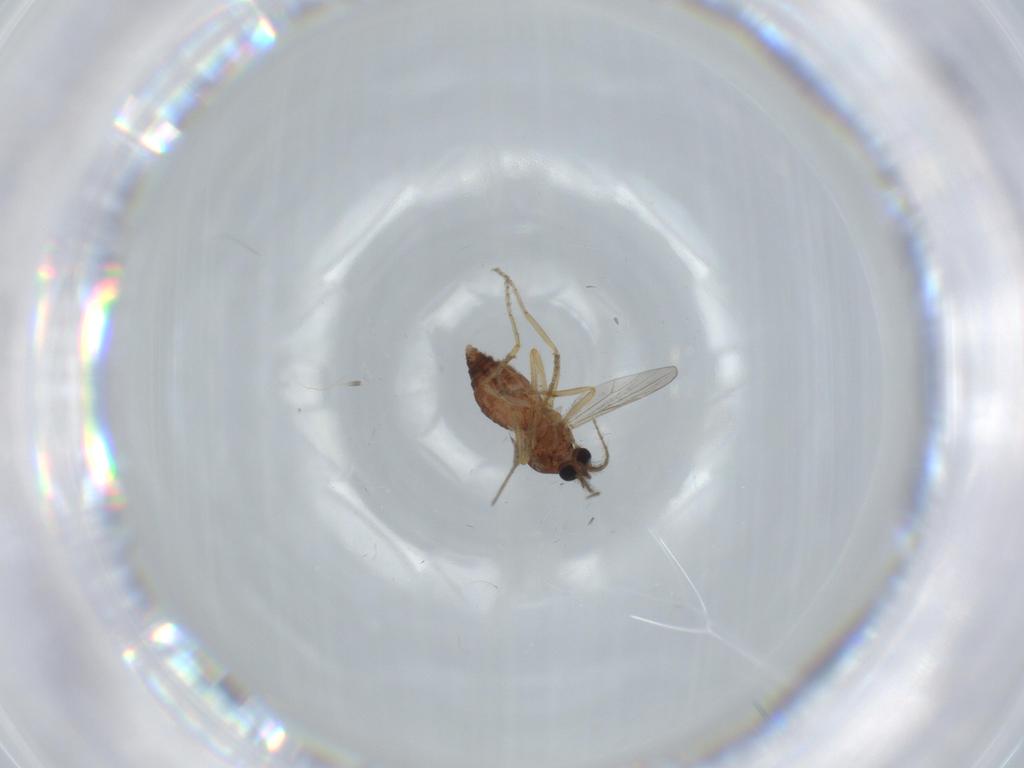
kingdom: Animalia
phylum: Arthropoda
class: Insecta
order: Diptera
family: Ceratopogonidae
